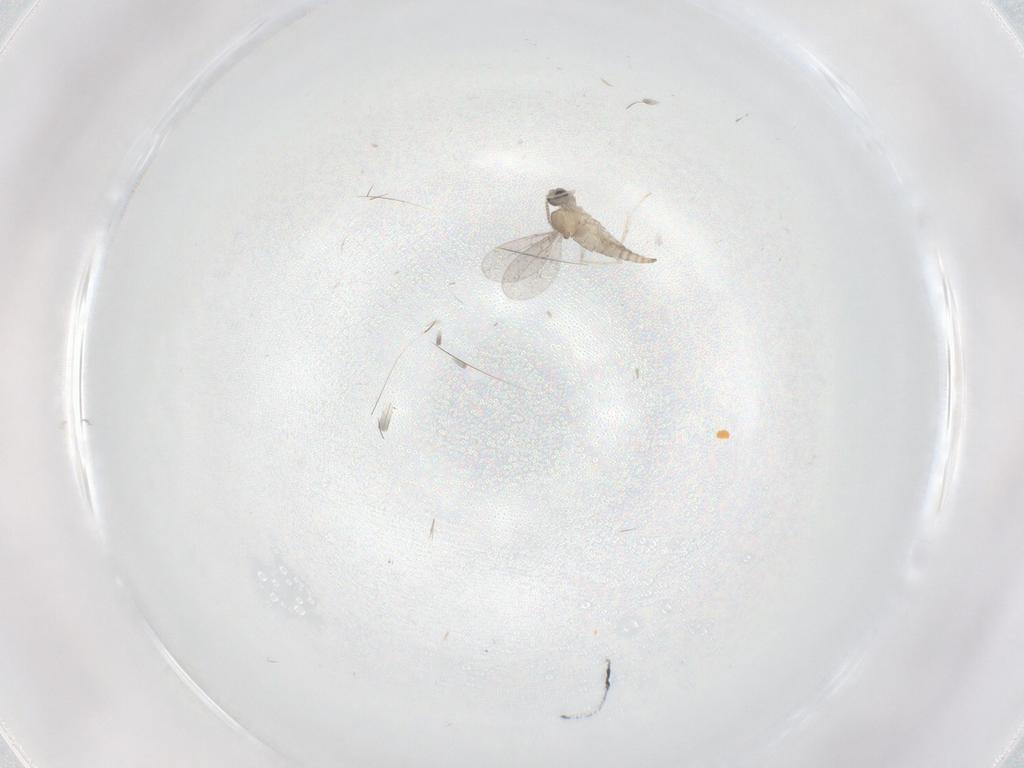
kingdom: Animalia
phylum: Arthropoda
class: Insecta
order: Diptera
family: Cecidomyiidae
